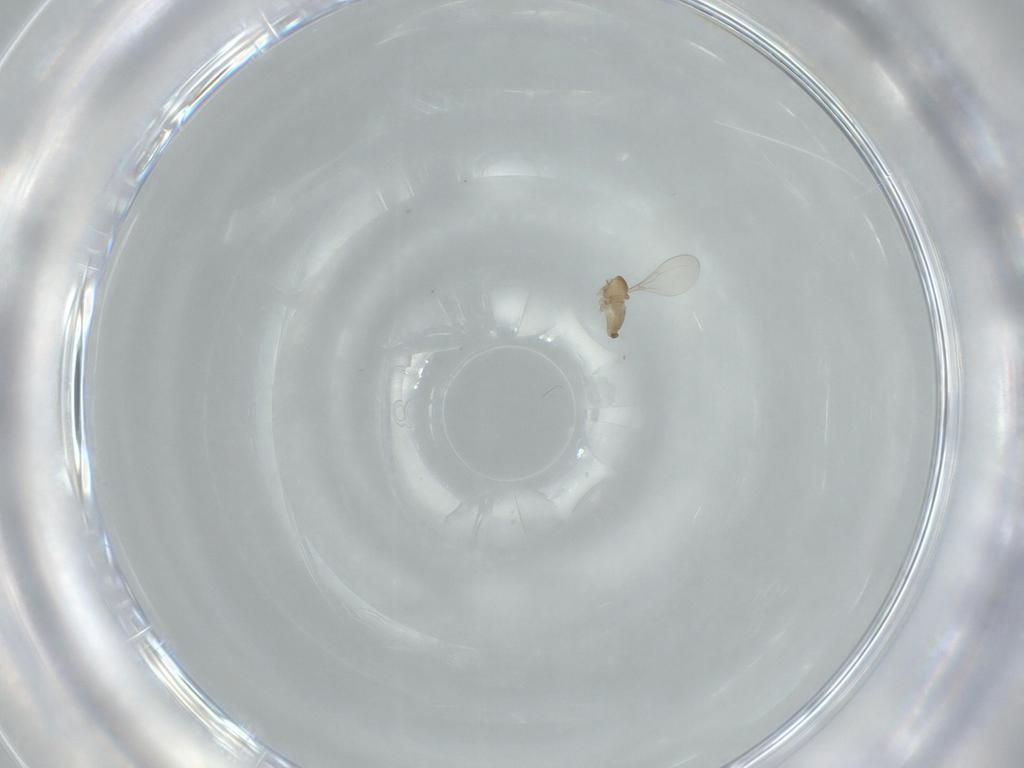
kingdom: Animalia
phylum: Arthropoda
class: Insecta
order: Diptera
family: Cecidomyiidae
